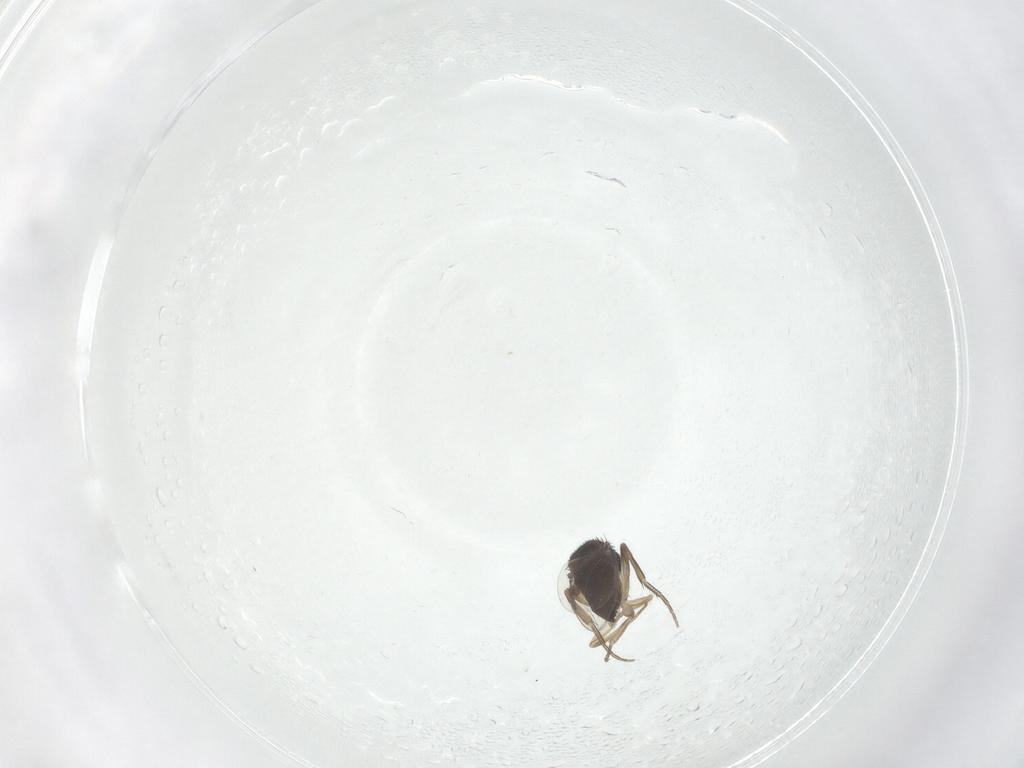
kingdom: Animalia
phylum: Arthropoda
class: Insecta
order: Diptera
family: Phoridae
